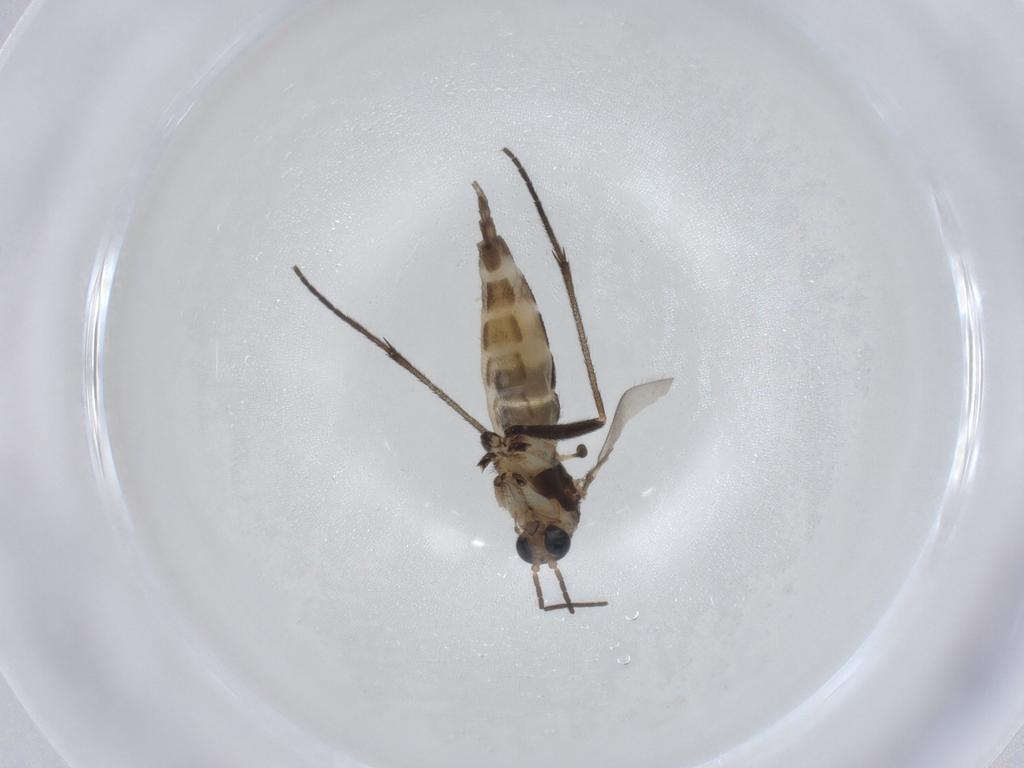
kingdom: Animalia
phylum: Arthropoda
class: Insecta
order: Diptera
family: Sciaridae
